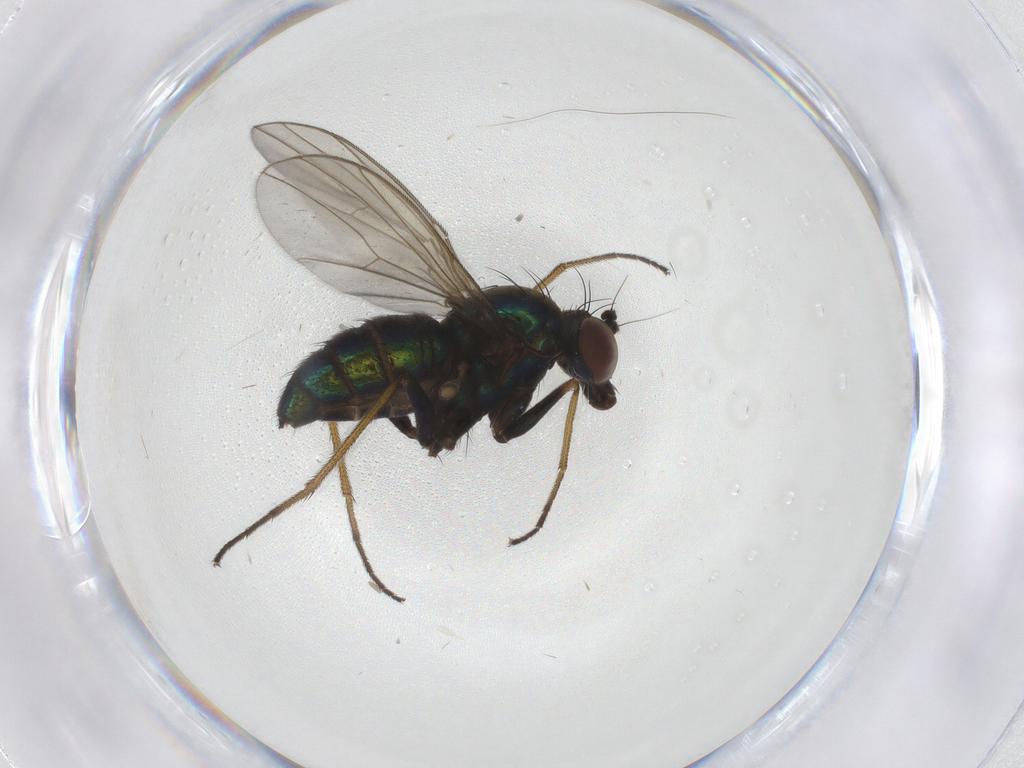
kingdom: Animalia
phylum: Arthropoda
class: Insecta
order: Diptera
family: Dolichopodidae
